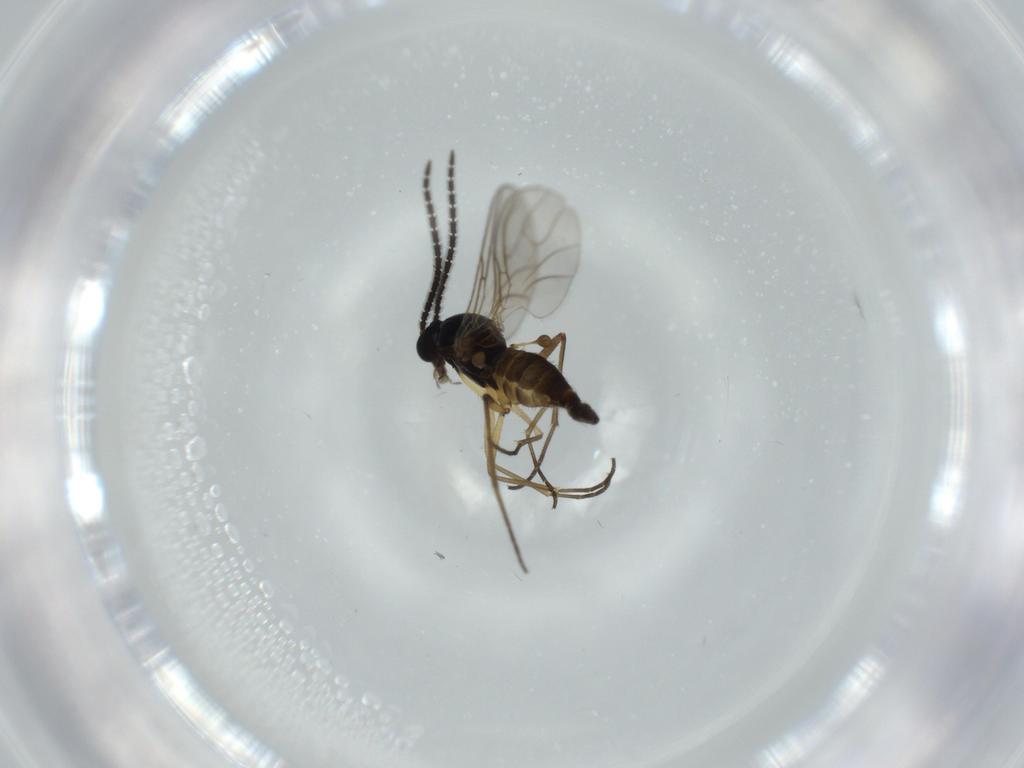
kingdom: Animalia
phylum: Arthropoda
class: Insecta
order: Diptera
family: Sciaridae
